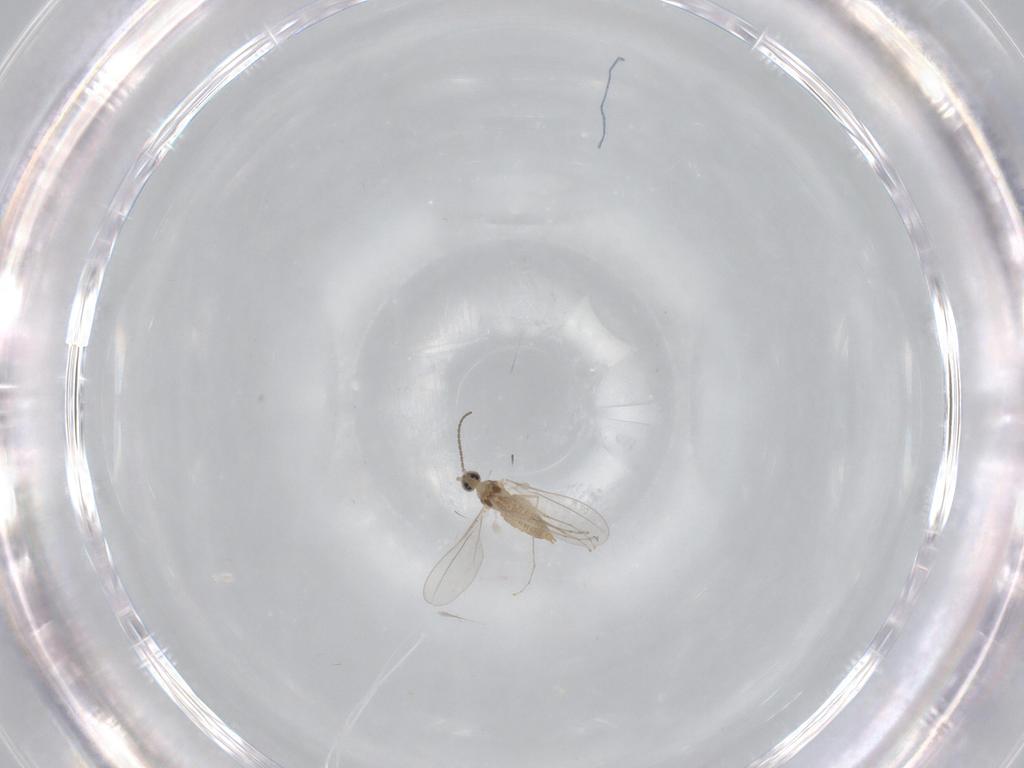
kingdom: Animalia
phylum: Arthropoda
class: Insecta
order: Diptera
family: Cecidomyiidae
